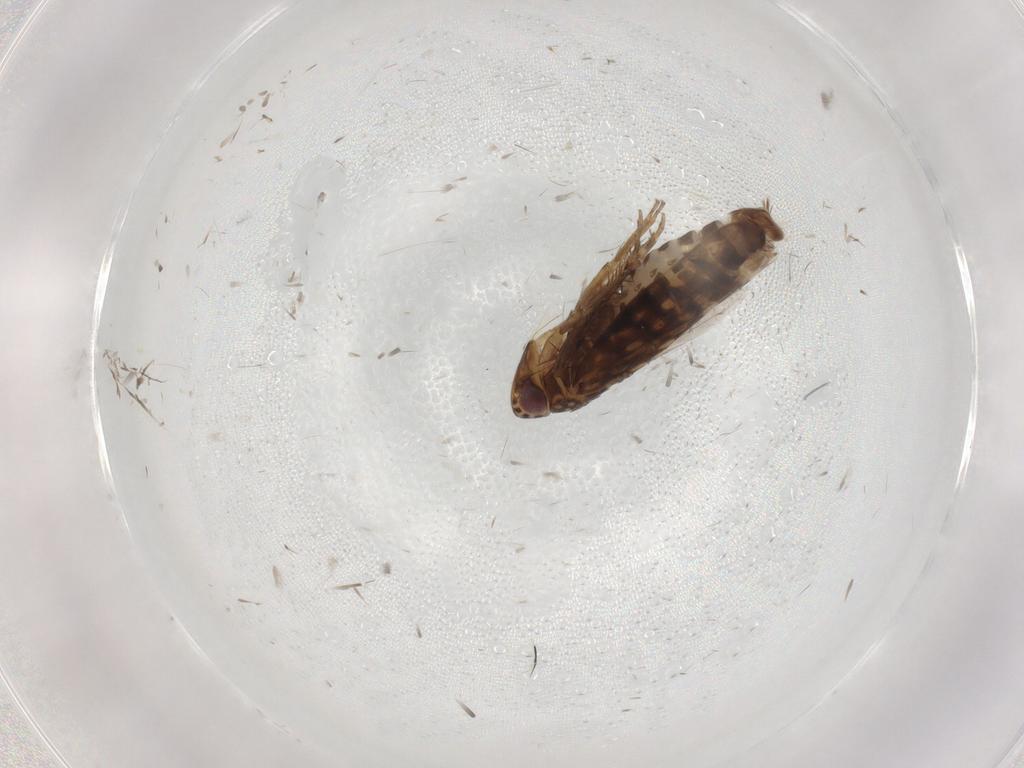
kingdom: Animalia
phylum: Arthropoda
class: Insecta
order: Hemiptera
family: Cicadellidae
